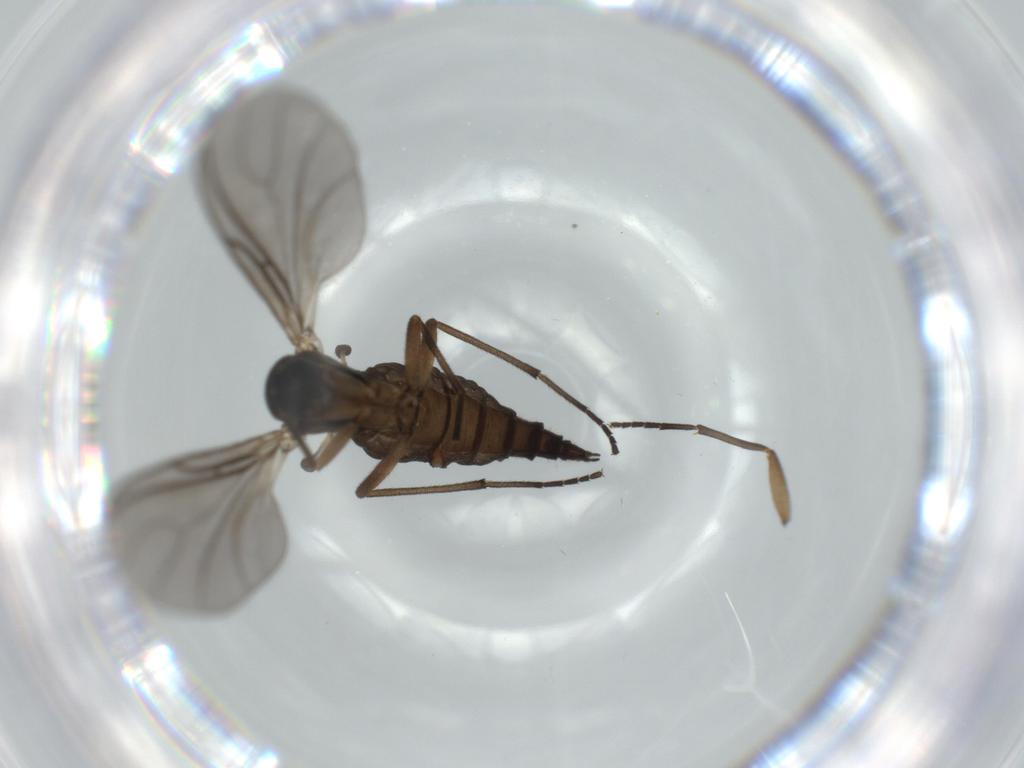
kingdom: Animalia
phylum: Arthropoda
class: Insecta
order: Diptera
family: Sciaridae
